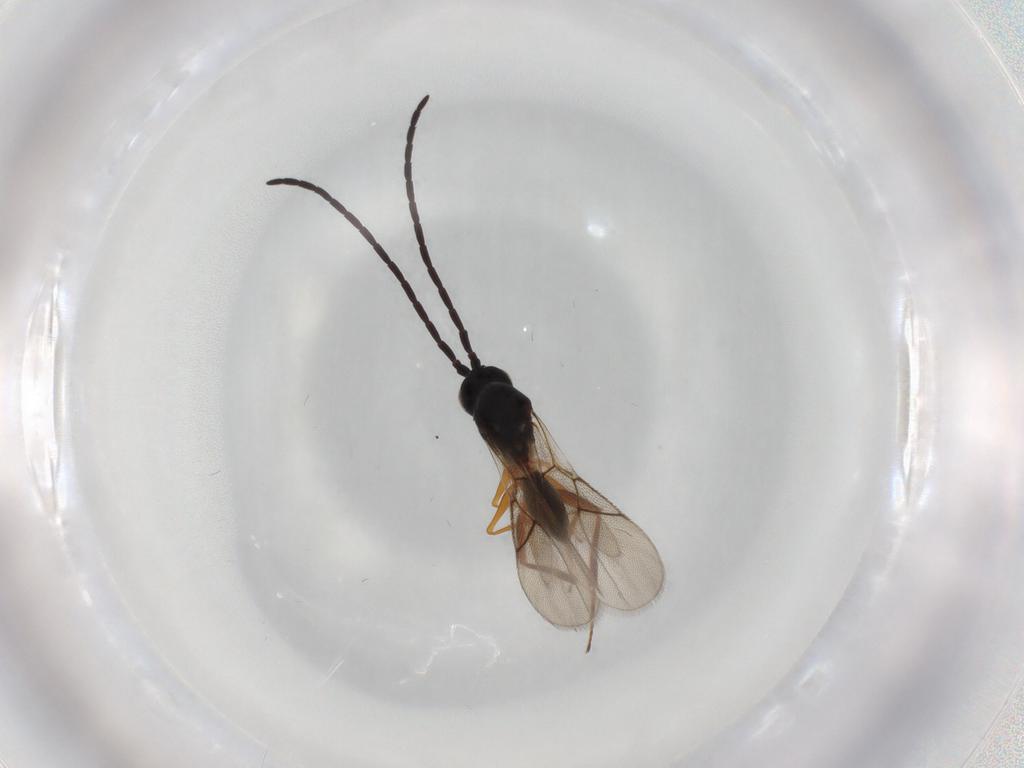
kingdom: Animalia
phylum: Arthropoda
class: Insecta
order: Hymenoptera
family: Figitidae
